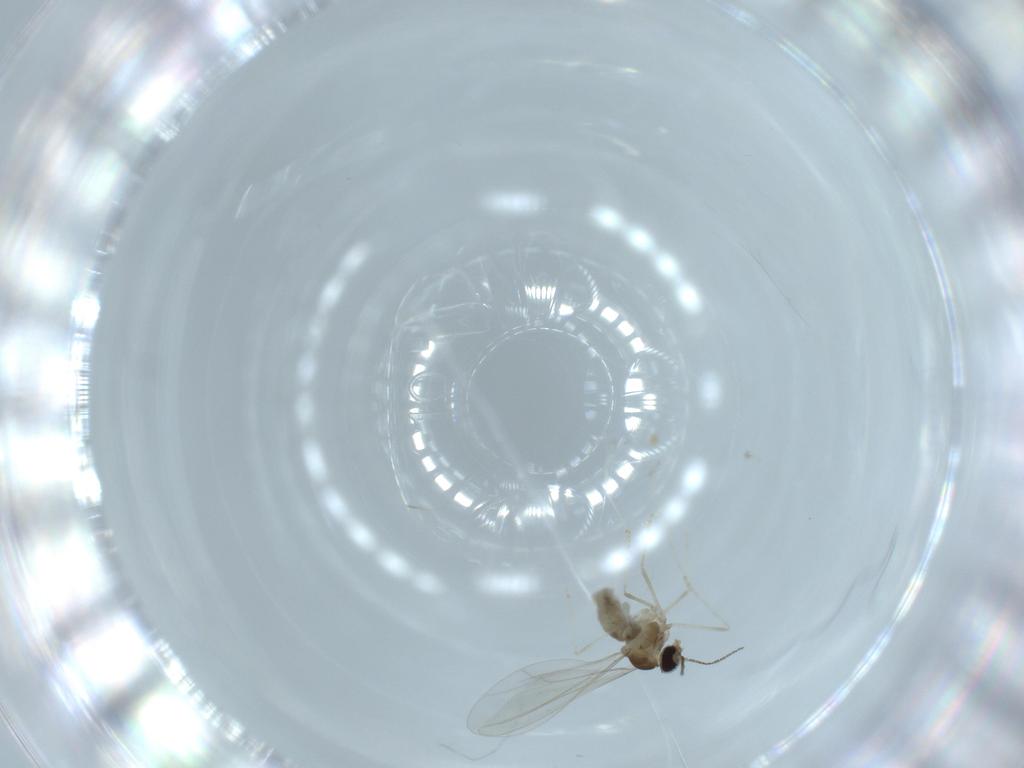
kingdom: Animalia
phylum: Arthropoda
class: Insecta
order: Diptera
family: Cecidomyiidae
